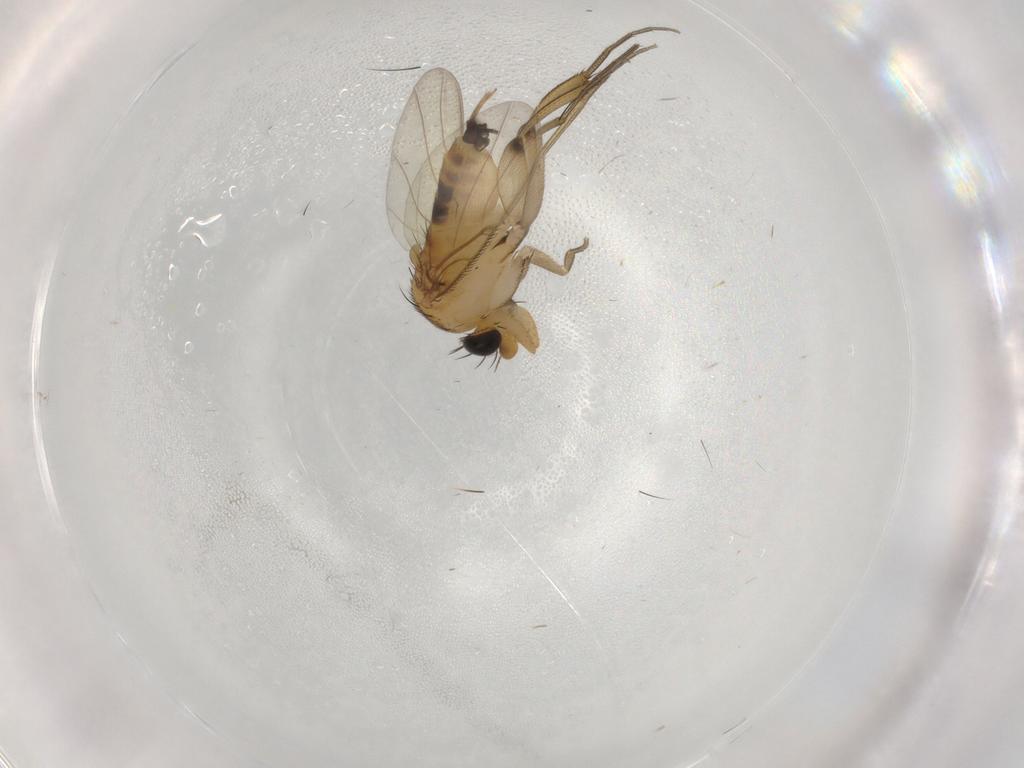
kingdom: Animalia
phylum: Arthropoda
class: Insecta
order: Diptera
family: Phoridae
